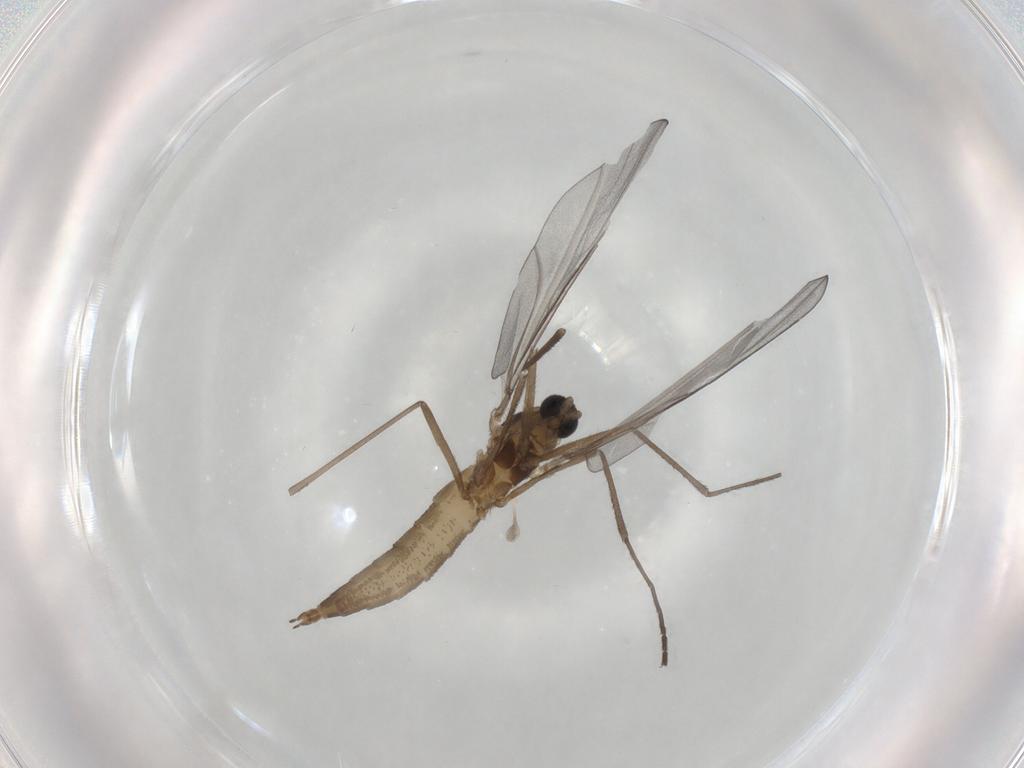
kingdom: Animalia
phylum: Arthropoda
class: Insecta
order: Diptera
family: Cecidomyiidae
